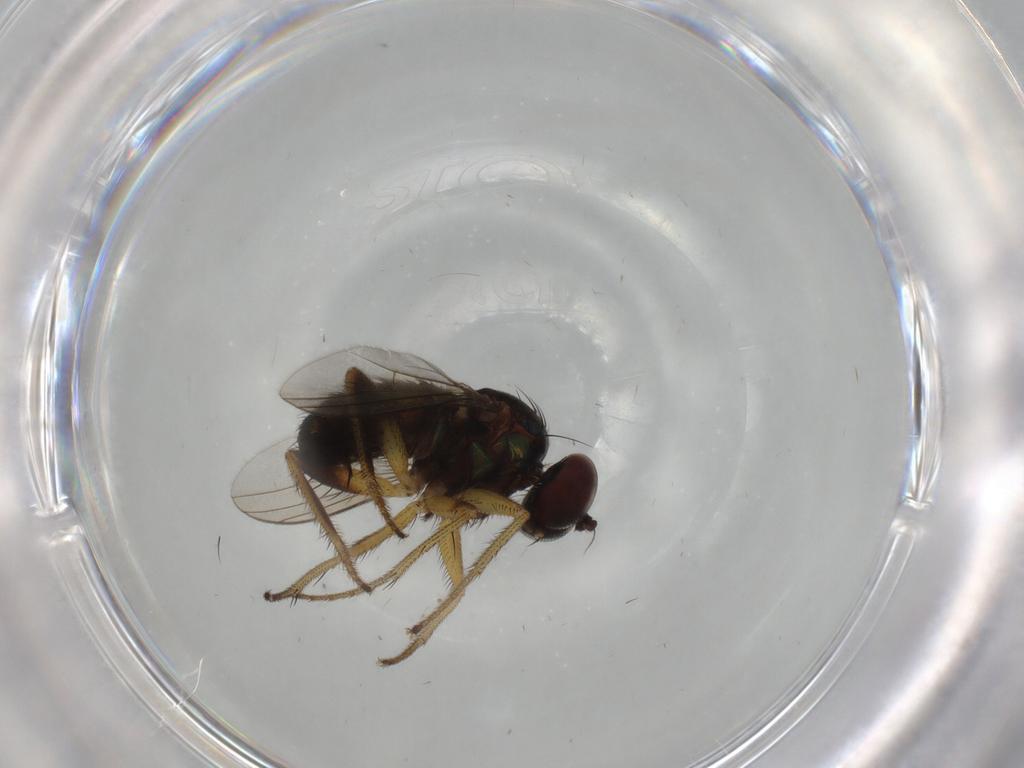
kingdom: Animalia
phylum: Arthropoda
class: Insecta
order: Diptera
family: Dolichopodidae
